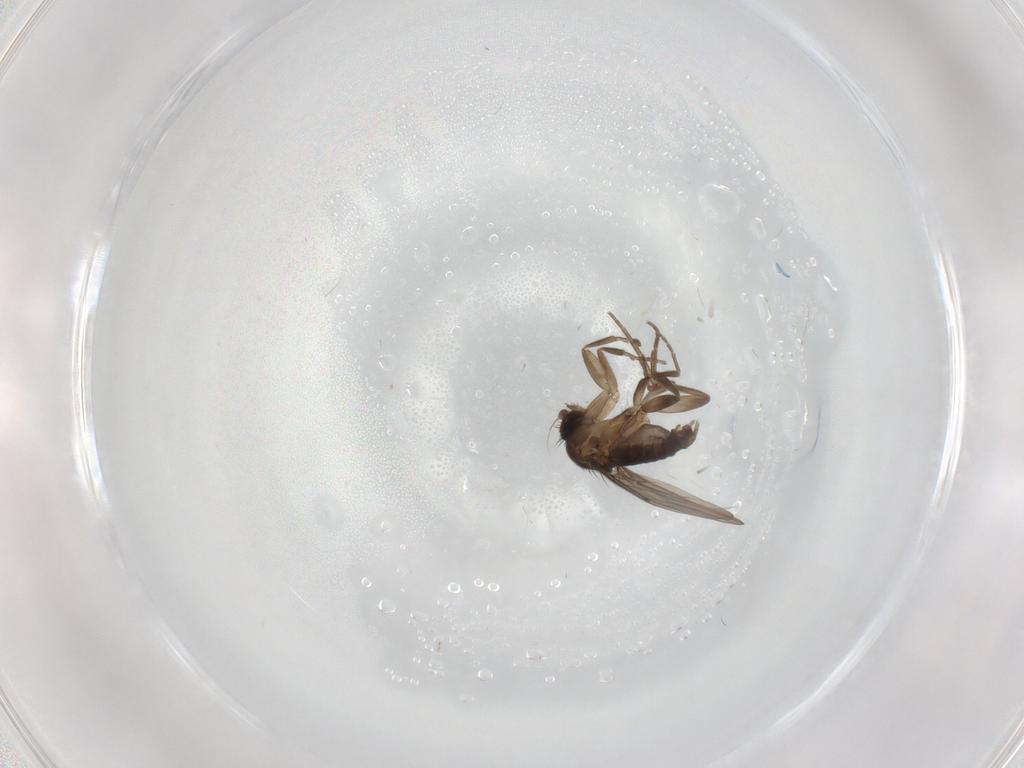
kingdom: Animalia
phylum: Arthropoda
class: Insecta
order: Diptera
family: Phoridae
